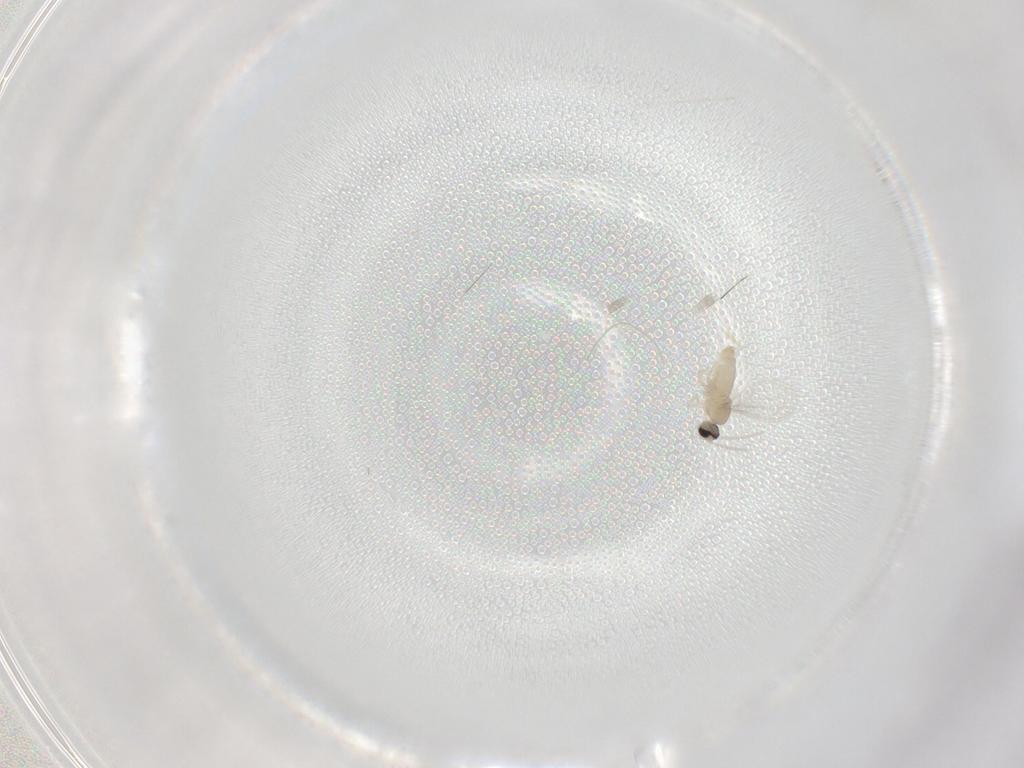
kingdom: Animalia
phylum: Arthropoda
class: Insecta
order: Diptera
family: Cecidomyiidae
